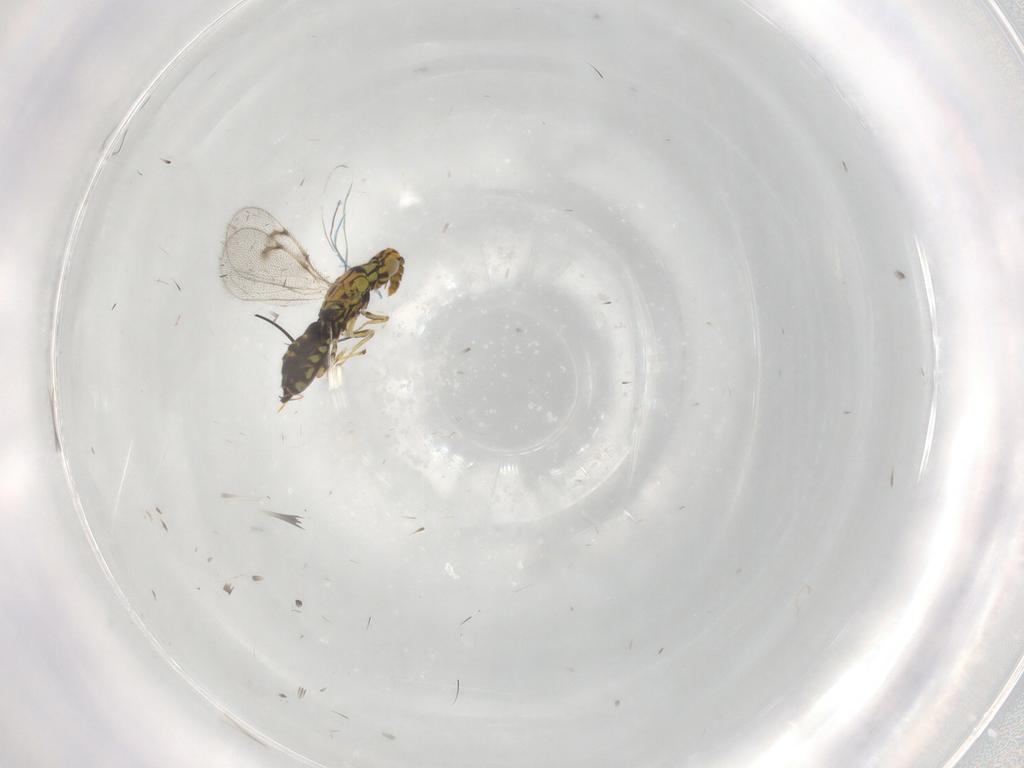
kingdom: Animalia
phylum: Arthropoda
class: Insecta
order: Hymenoptera
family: Eulophidae
